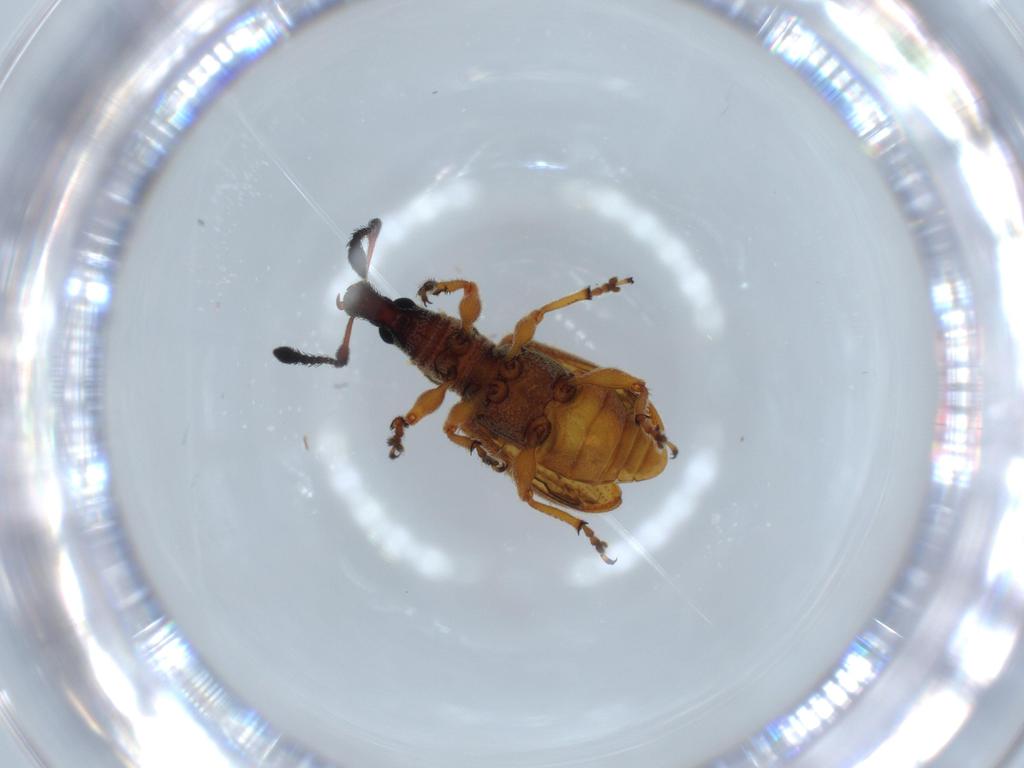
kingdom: Animalia
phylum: Arthropoda
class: Insecta
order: Coleoptera
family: Curculionidae
